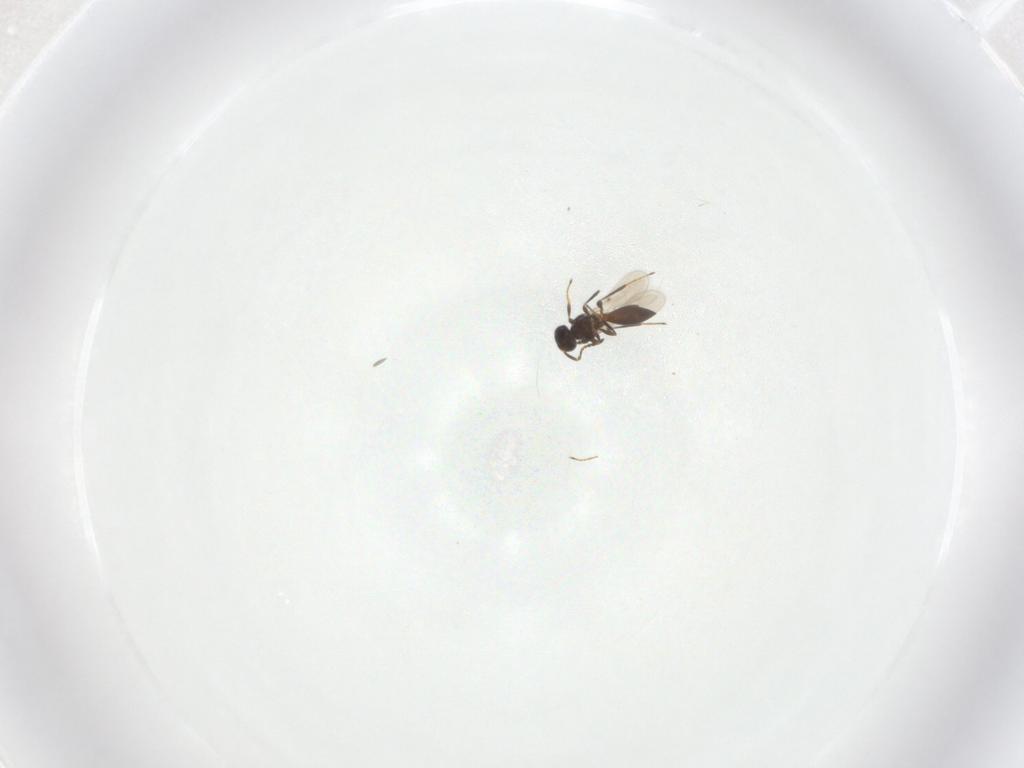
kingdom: Animalia
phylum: Arthropoda
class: Insecta
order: Hymenoptera
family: Platygastridae
